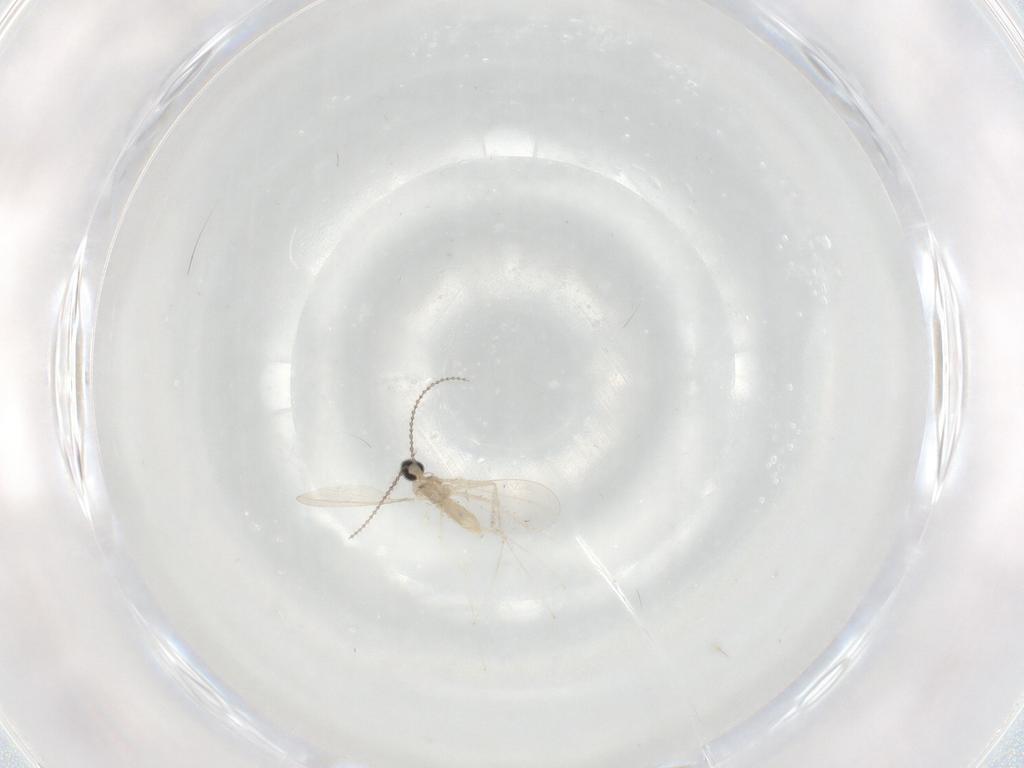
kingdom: Animalia
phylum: Arthropoda
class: Insecta
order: Diptera
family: Cecidomyiidae
